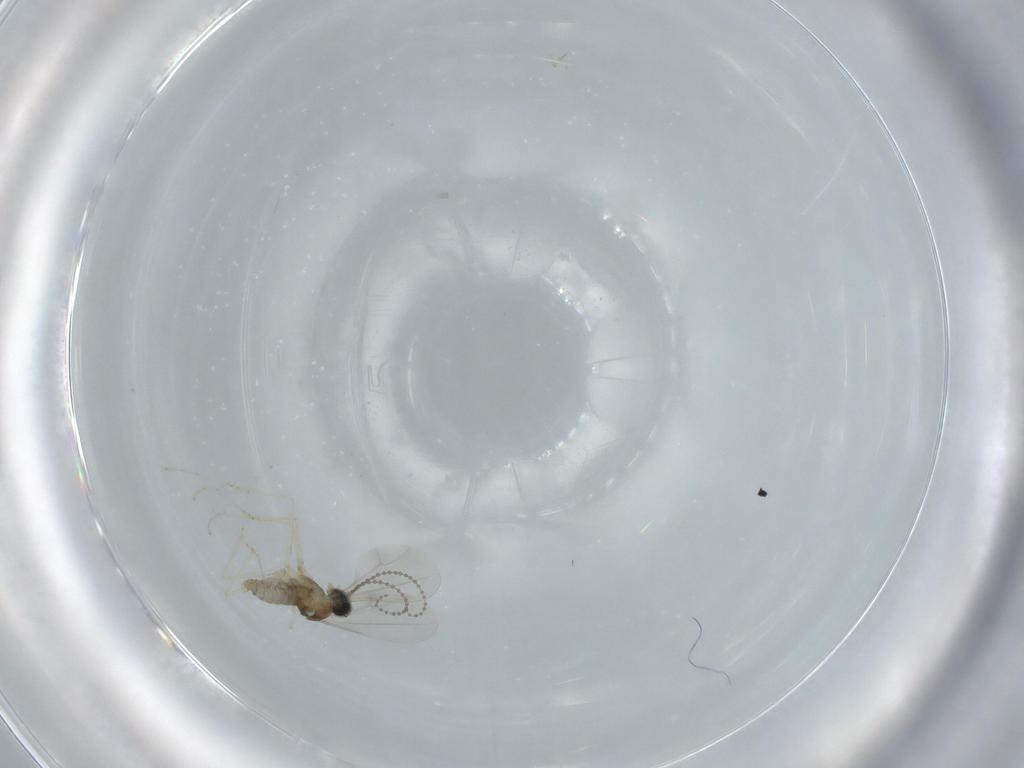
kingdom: Animalia
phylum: Arthropoda
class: Insecta
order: Diptera
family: Cecidomyiidae
